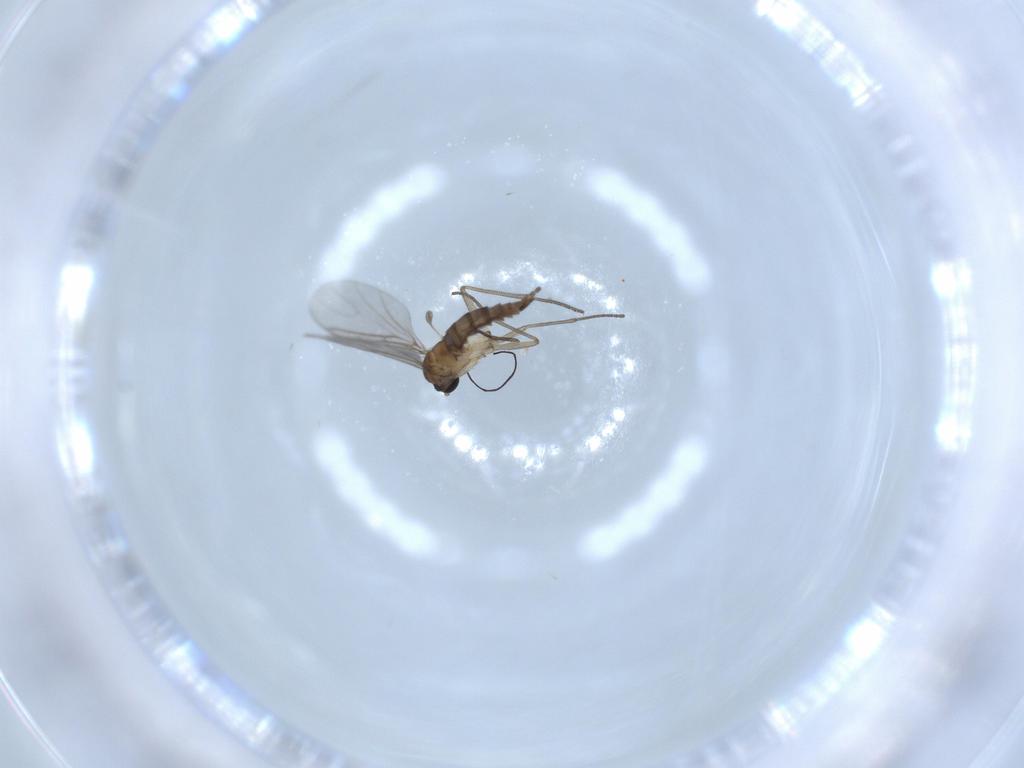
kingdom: Animalia
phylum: Arthropoda
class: Insecta
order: Diptera
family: Sciaridae
